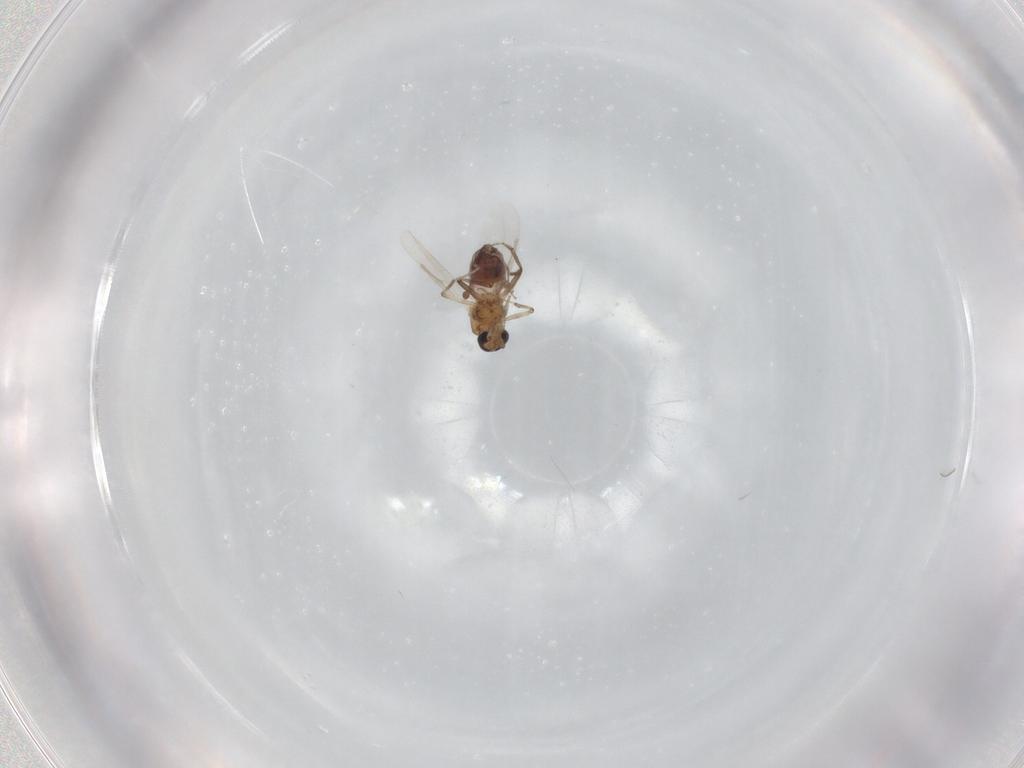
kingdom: Animalia
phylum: Arthropoda
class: Insecta
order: Diptera
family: Ceratopogonidae
